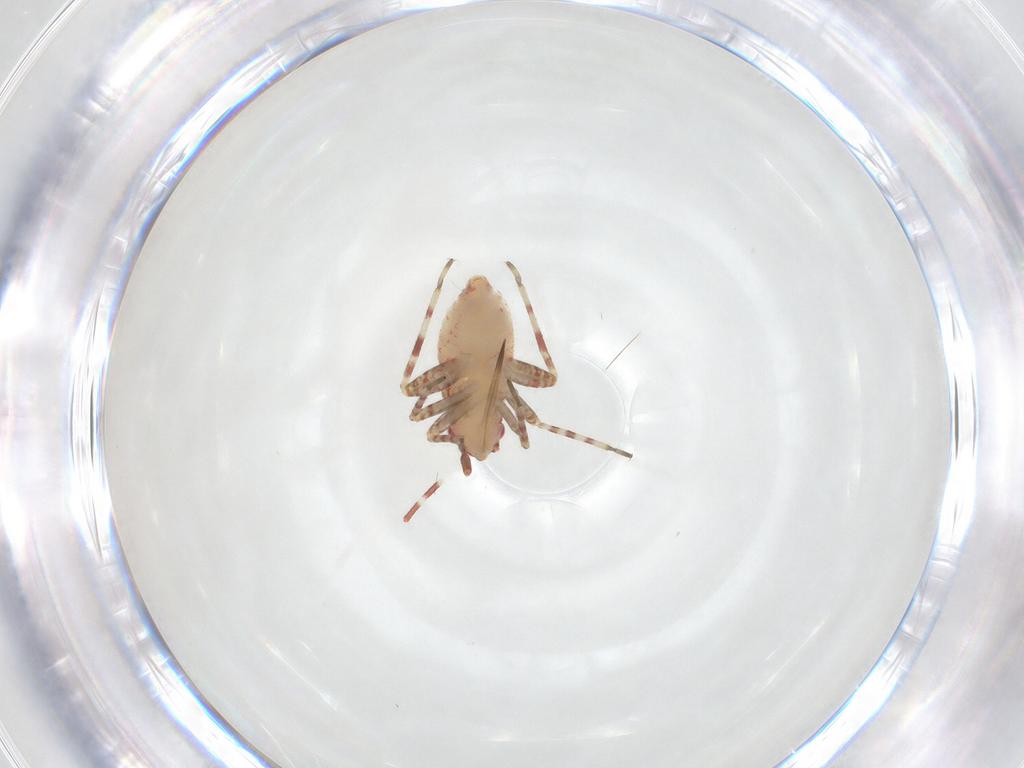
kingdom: Animalia
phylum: Arthropoda
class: Insecta
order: Hemiptera
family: Miridae
